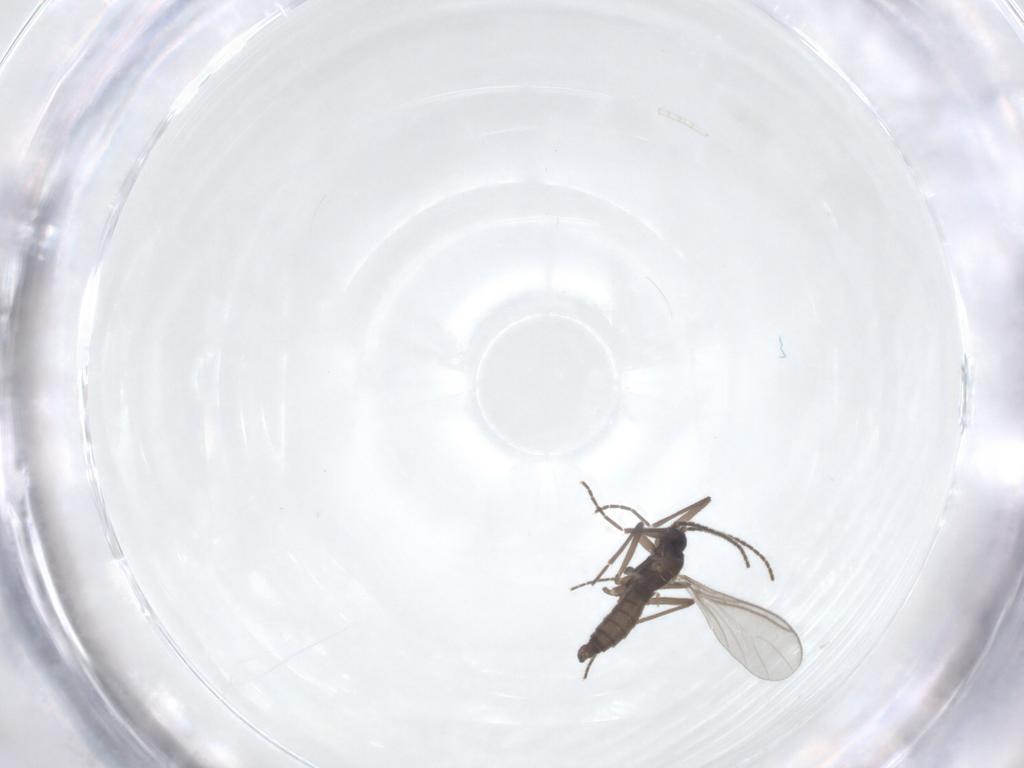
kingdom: Animalia
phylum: Arthropoda
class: Insecta
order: Diptera
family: Sciaridae
